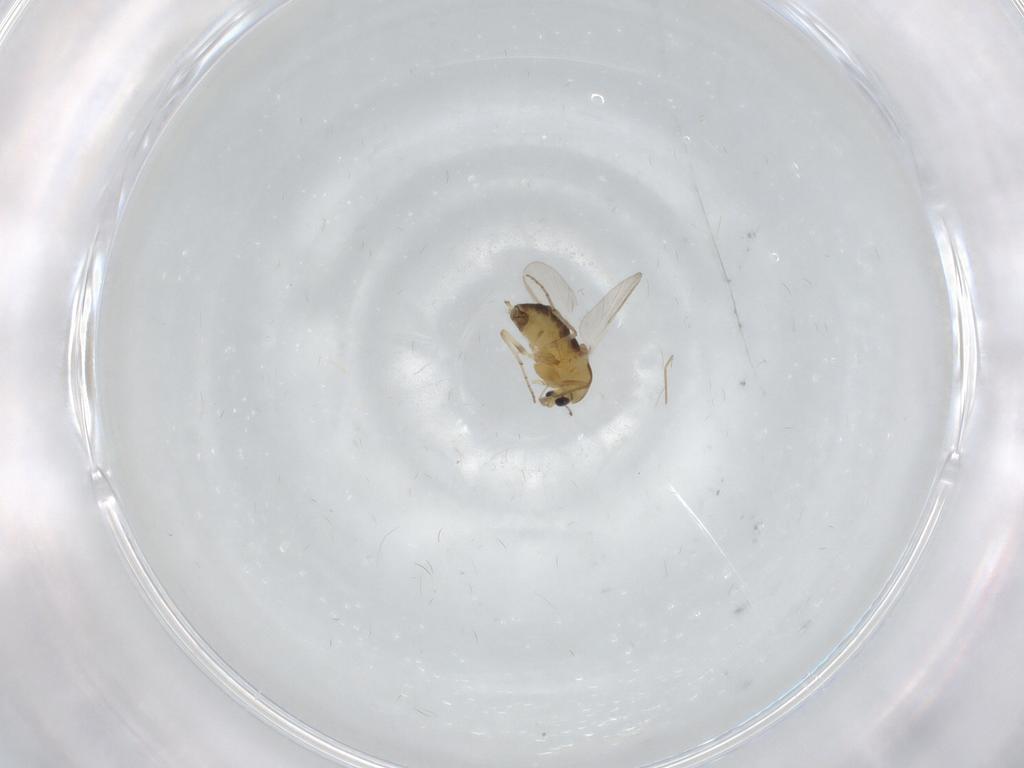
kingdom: Animalia
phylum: Arthropoda
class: Insecta
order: Diptera
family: Chironomidae
